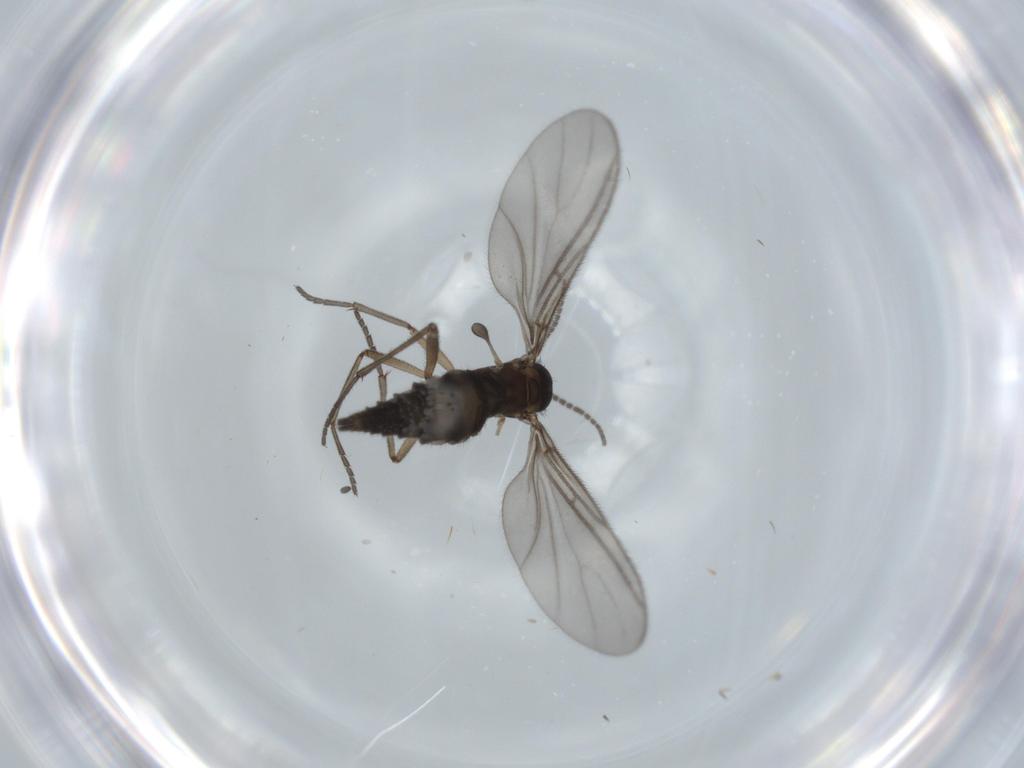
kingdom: Animalia
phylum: Arthropoda
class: Insecta
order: Diptera
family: Sciaridae
